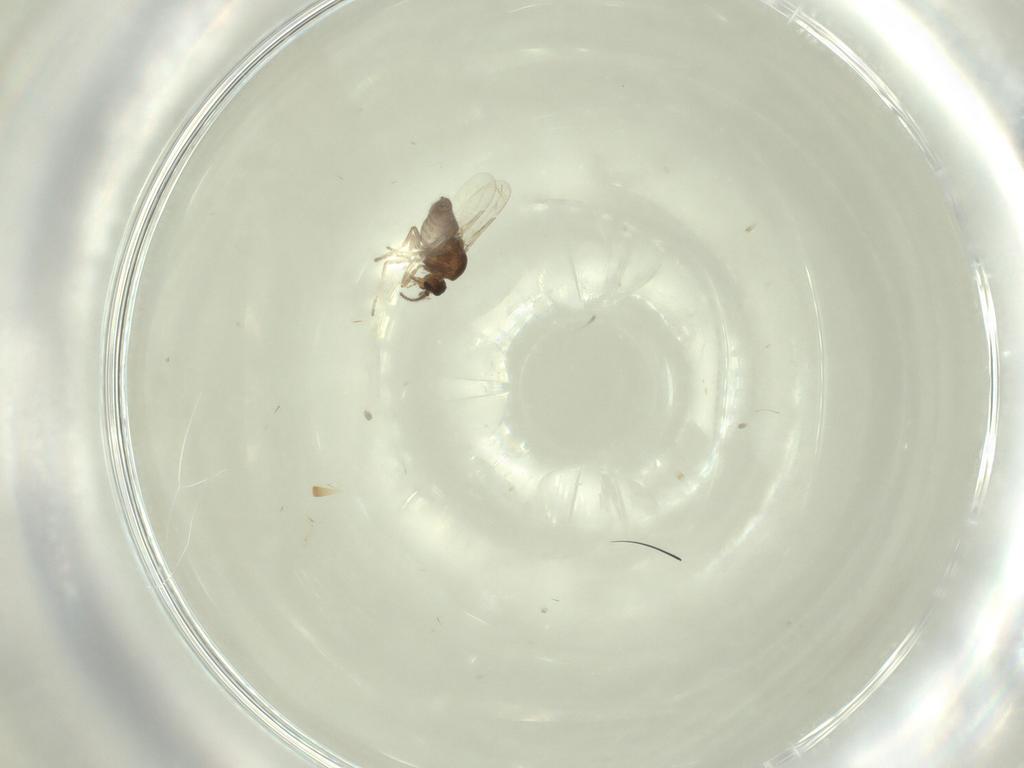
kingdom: Animalia
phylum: Arthropoda
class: Insecta
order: Diptera
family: Ceratopogonidae
